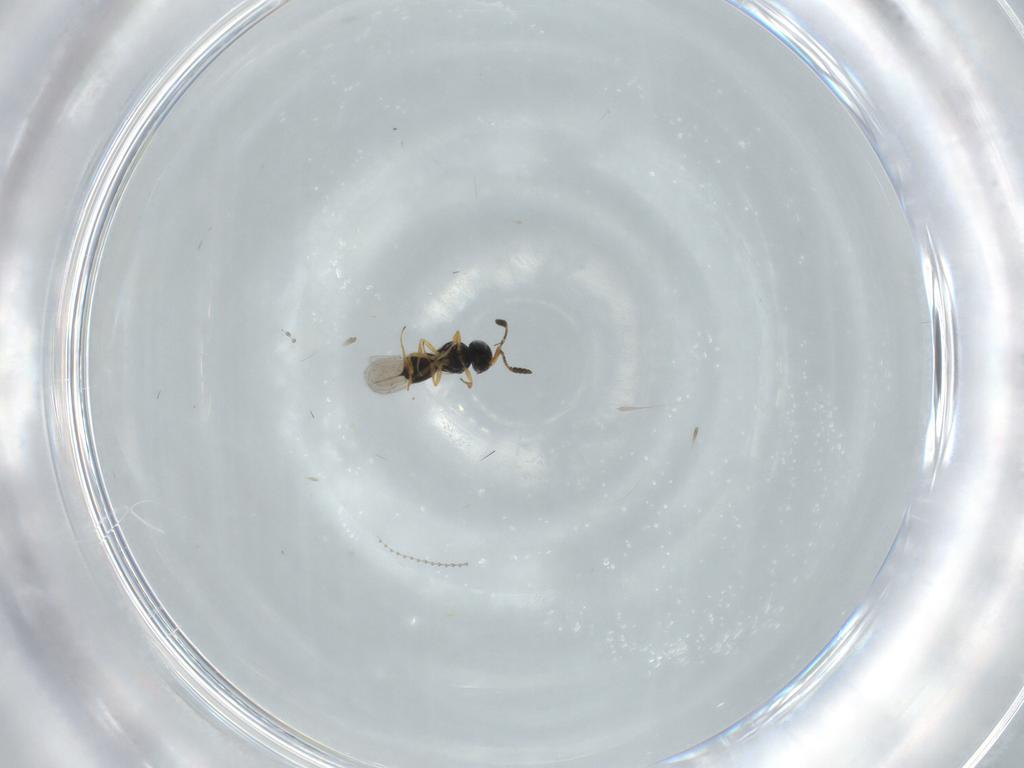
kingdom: Animalia
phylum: Arthropoda
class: Insecta
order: Hymenoptera
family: Scelionidae
